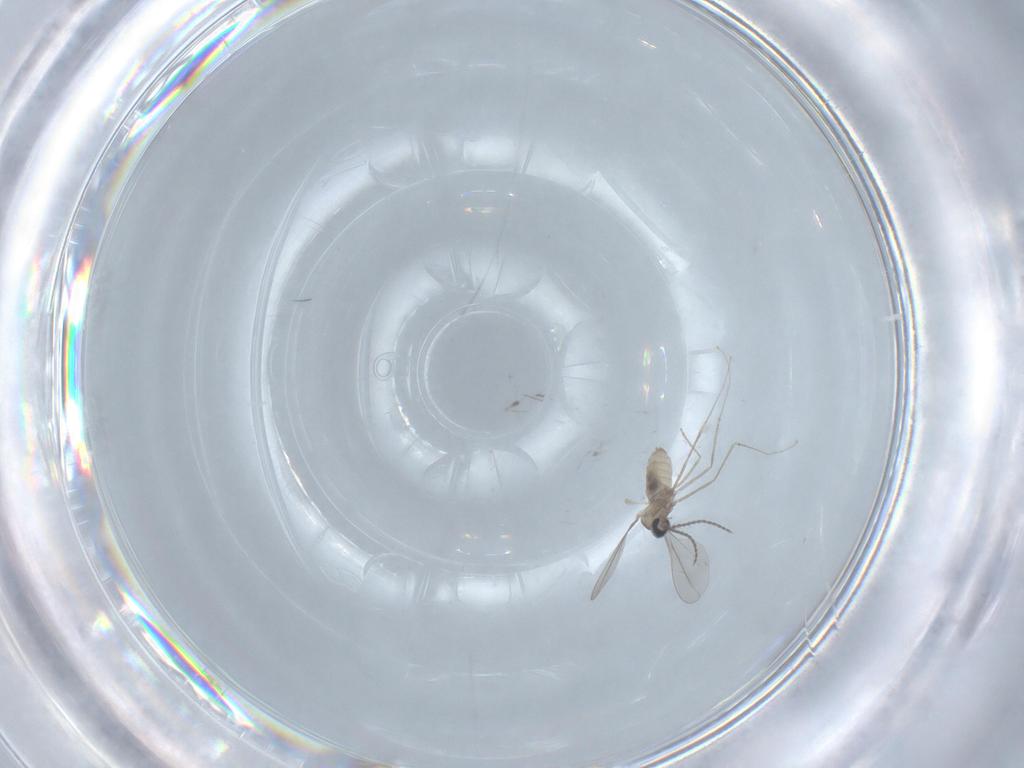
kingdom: Animalia
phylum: Arthropoda
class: Insecta
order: Diptera
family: Cecidomyiidae
